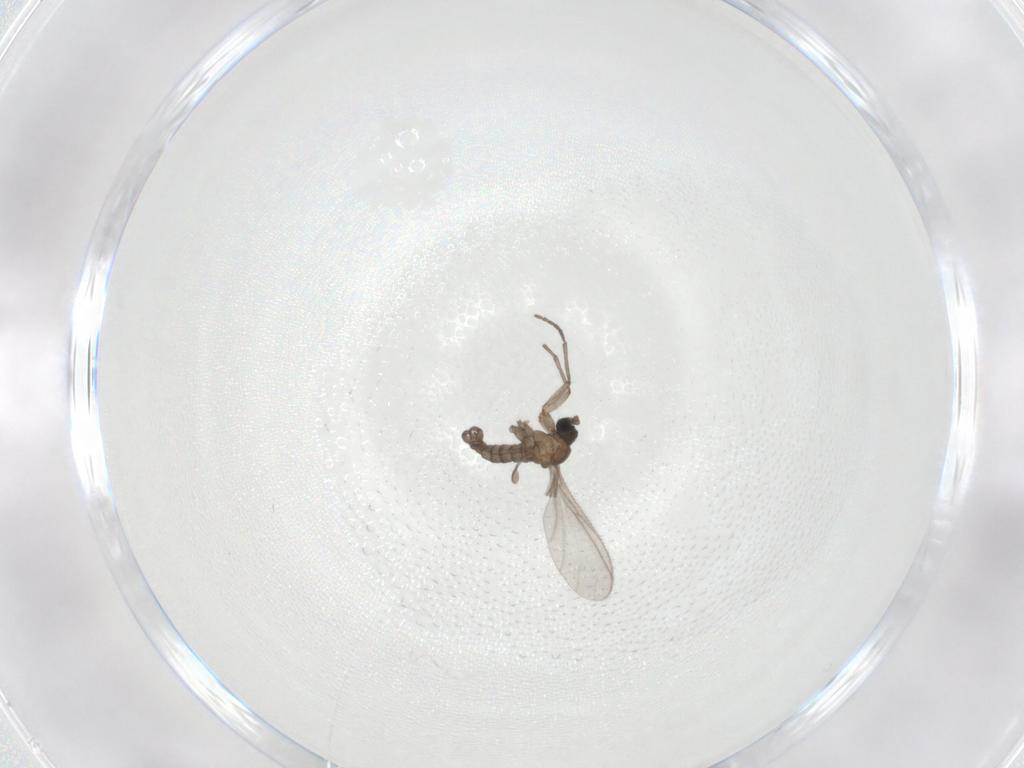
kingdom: Animalia
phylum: Arthropoda
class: Insecta
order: Diptera
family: Sciaridae
